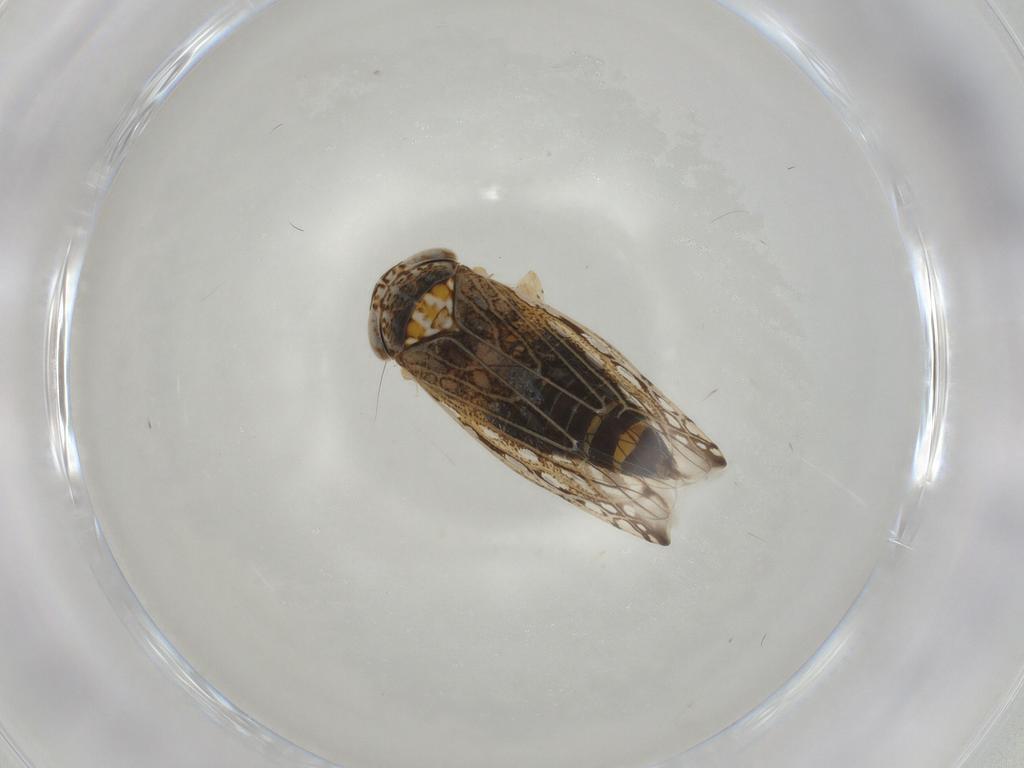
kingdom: Animalia
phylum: Arthropoda
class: Insecta
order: Hemiptera
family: Cicadellidae
